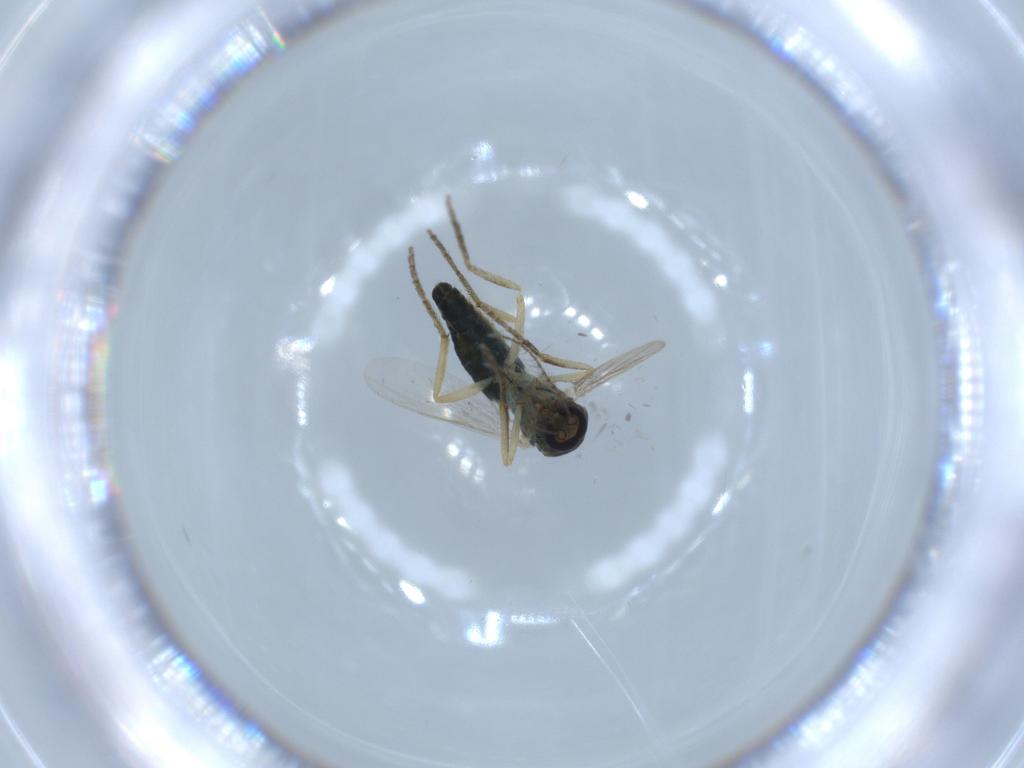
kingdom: Animalia
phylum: Arthropoda
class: Insecta
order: Diptera
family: Ceratopogonidae
